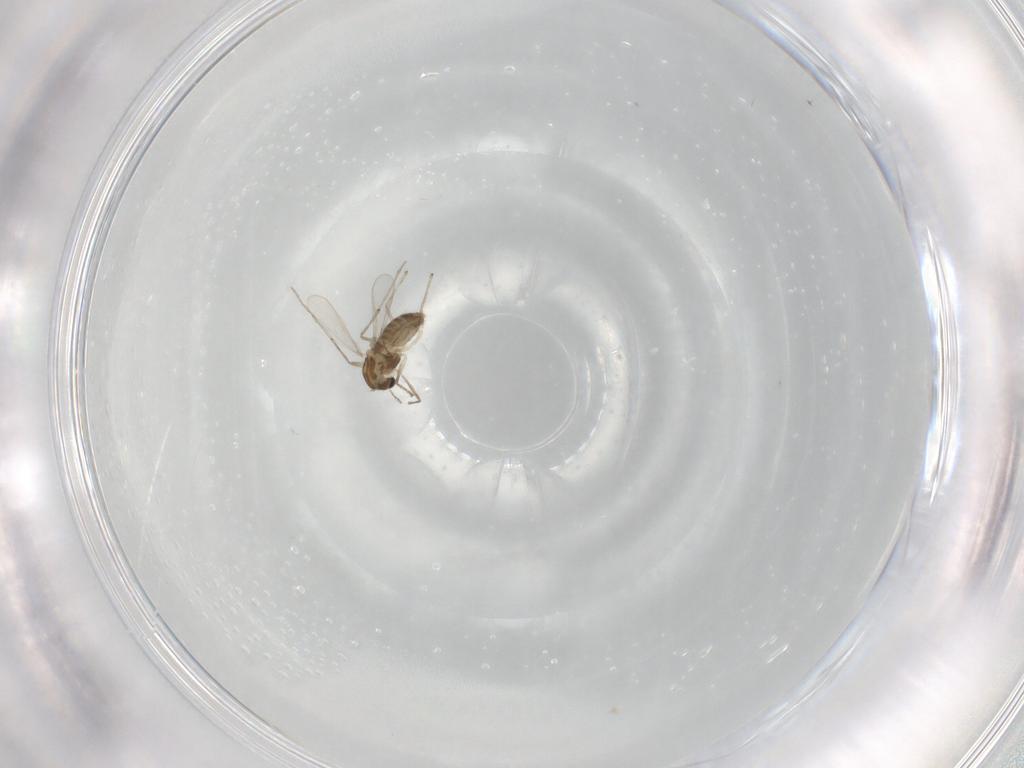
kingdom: Animalia
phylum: Arthropoda
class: Insecta
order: Diptera
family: Chironomidae
